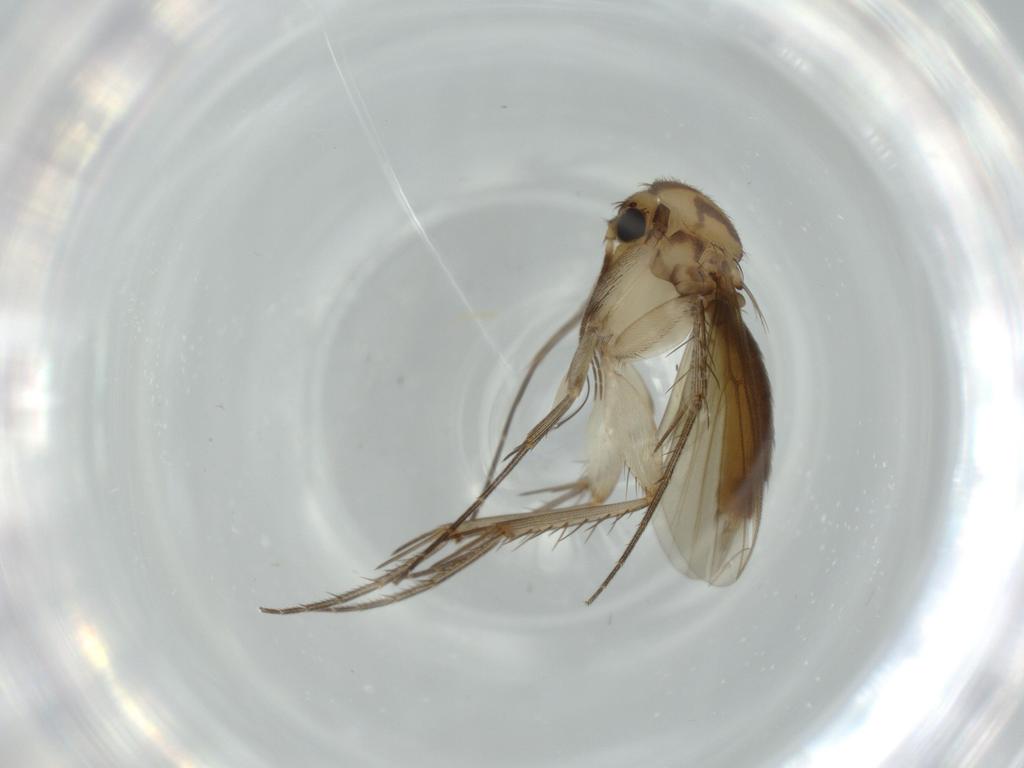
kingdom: Animalia
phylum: Arthropoda
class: Insecta
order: Diptera
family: Mycetophilidae
